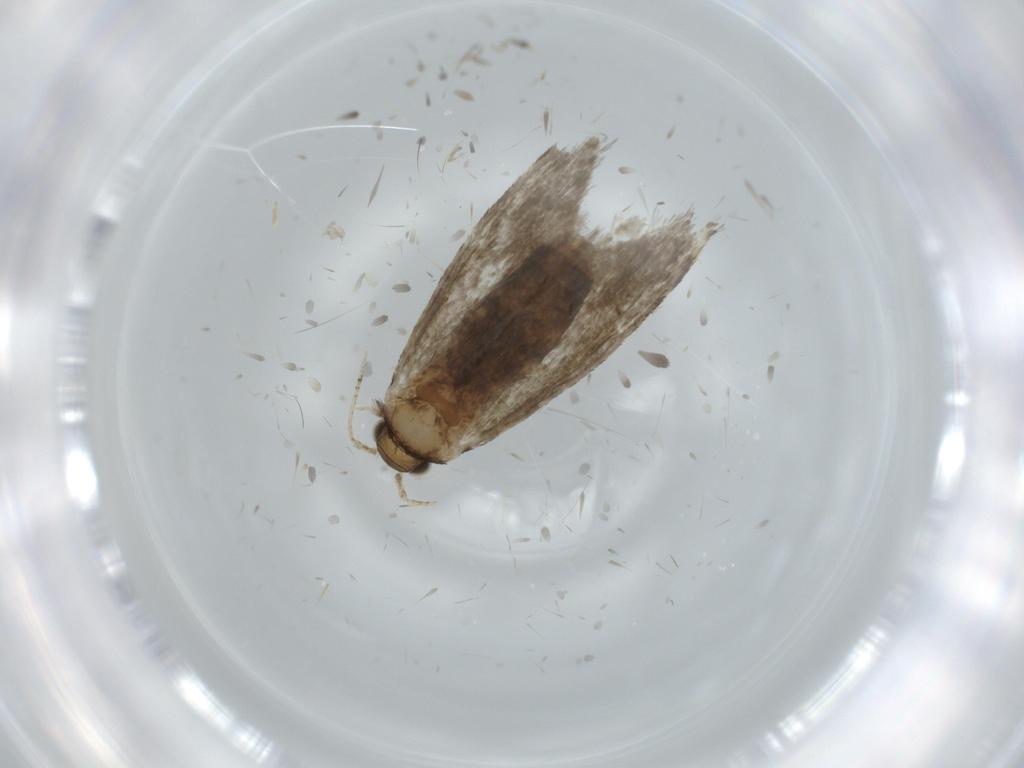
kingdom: Animalia
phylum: Arthropoda
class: Insecta
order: Lepidoptera
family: Tineidae
